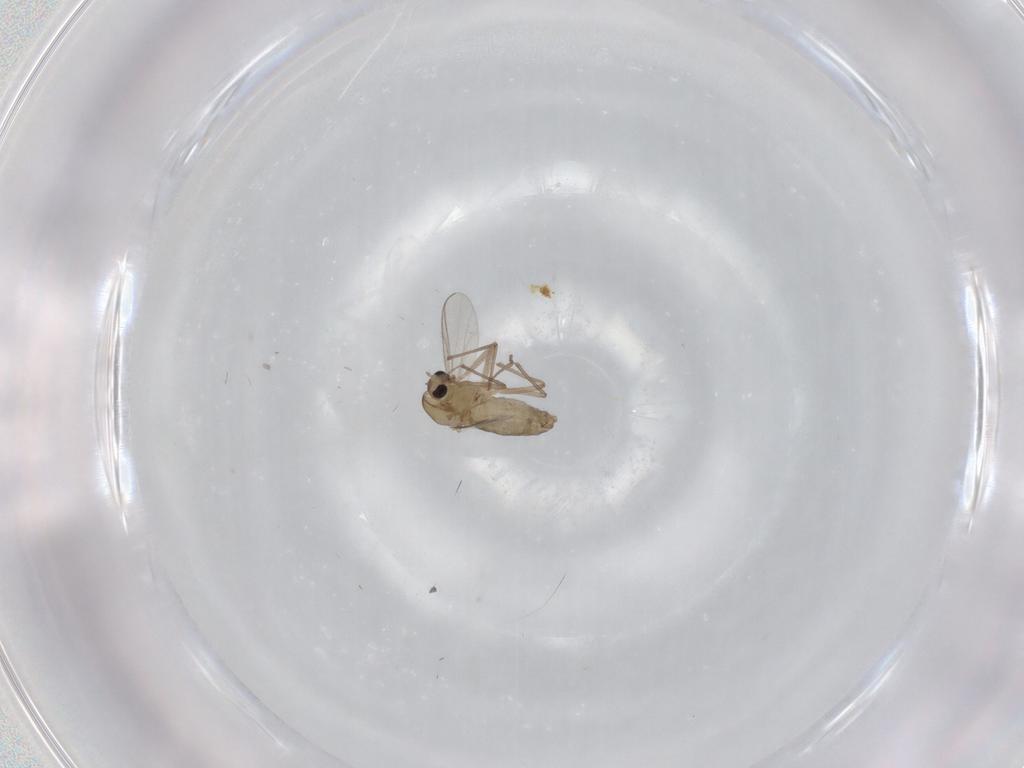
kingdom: Animalia
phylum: Arthropoda
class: Insecta
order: Diptera
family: Chironomidae
